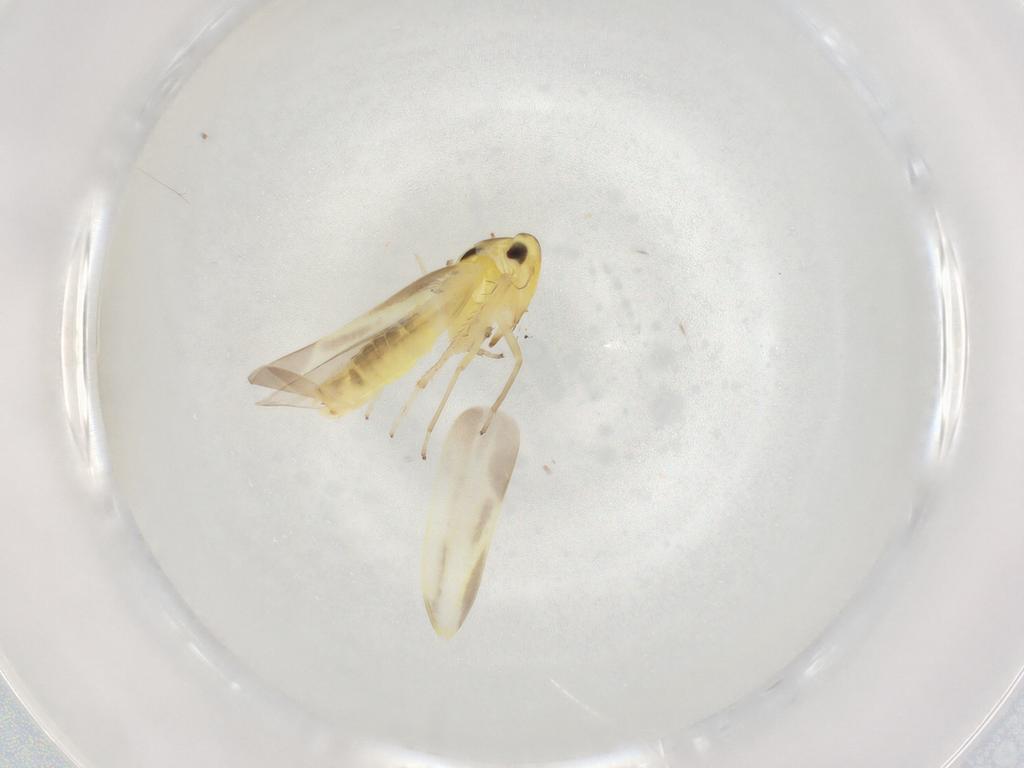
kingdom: Animalia
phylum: Arthropoda
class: Insecta
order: Hemiptera
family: Cicadellidae
